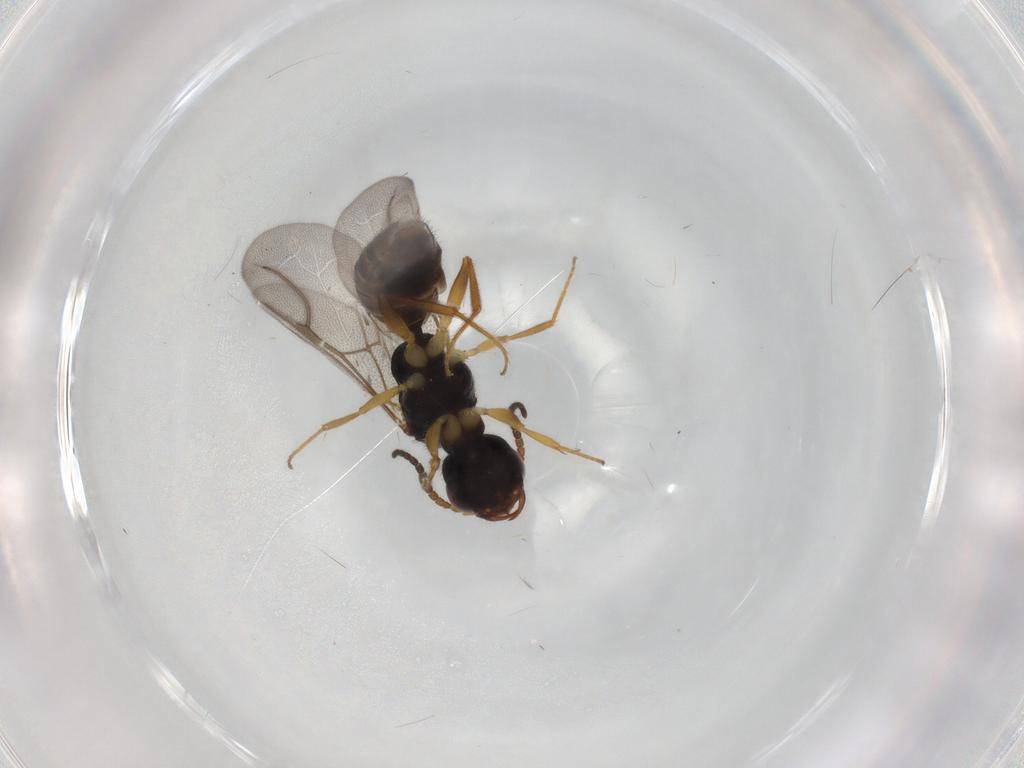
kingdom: Animalia
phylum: Arthropoda
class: Insecta
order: Hymenoptera
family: Bethylidae
